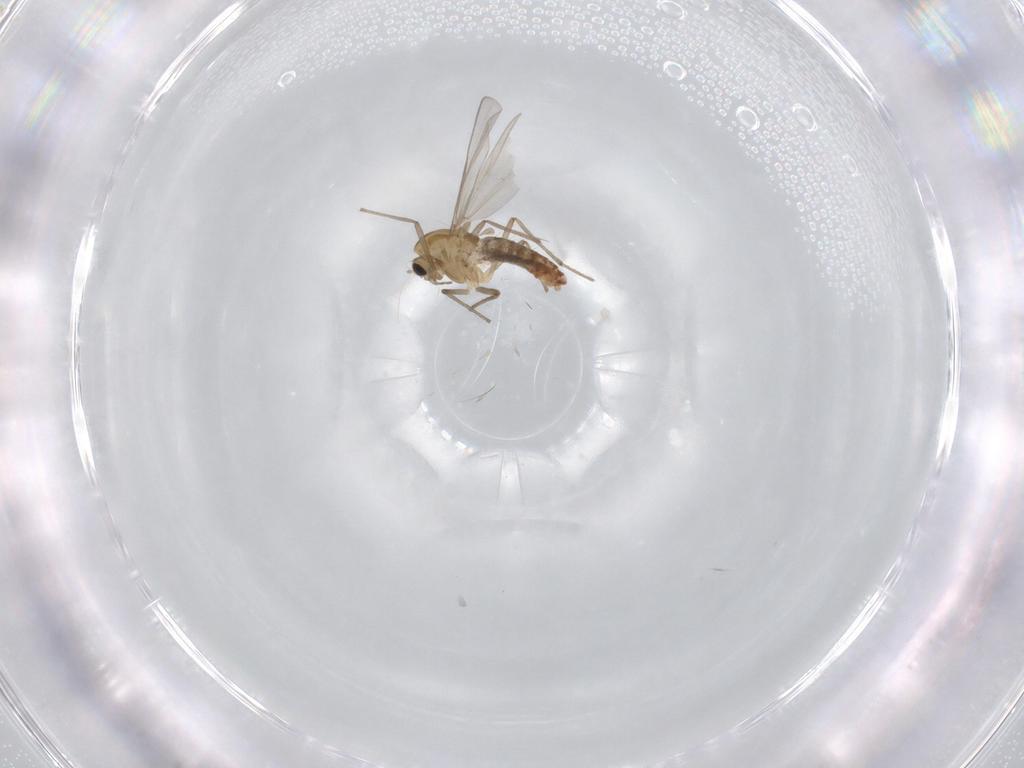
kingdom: Animalia
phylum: Arthropoda
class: Insecta
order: Diptera
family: Chironomidae
